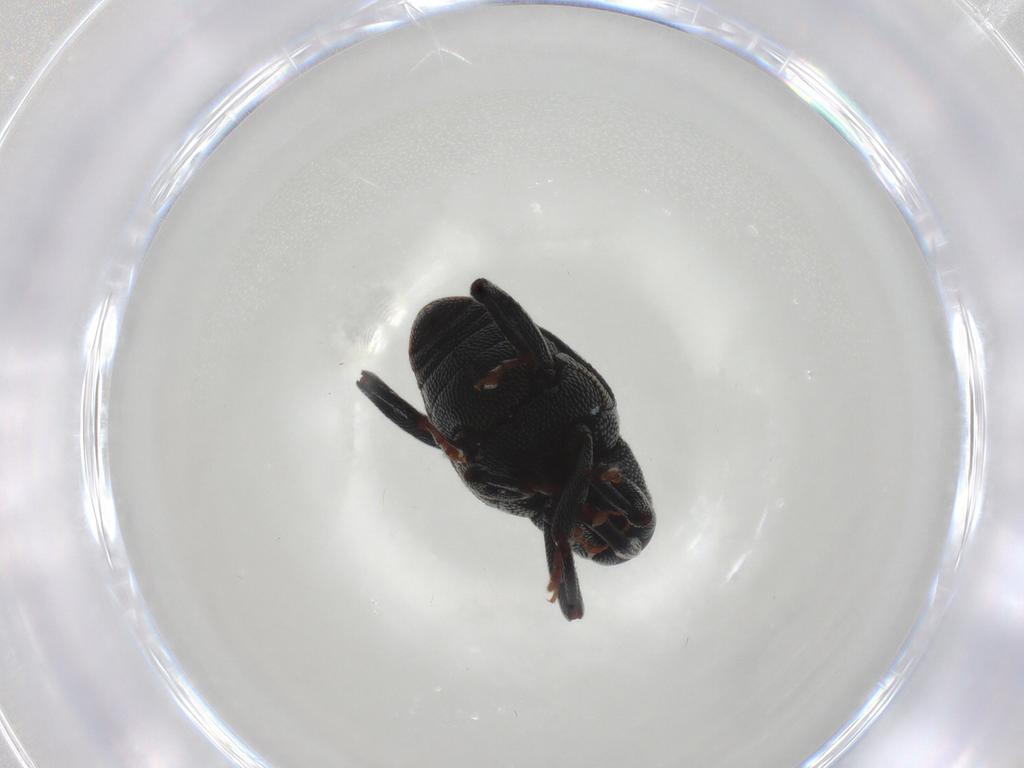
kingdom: Animalia
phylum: Arthropoda
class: Insecta
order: Coleoptera
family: Curculionidae
